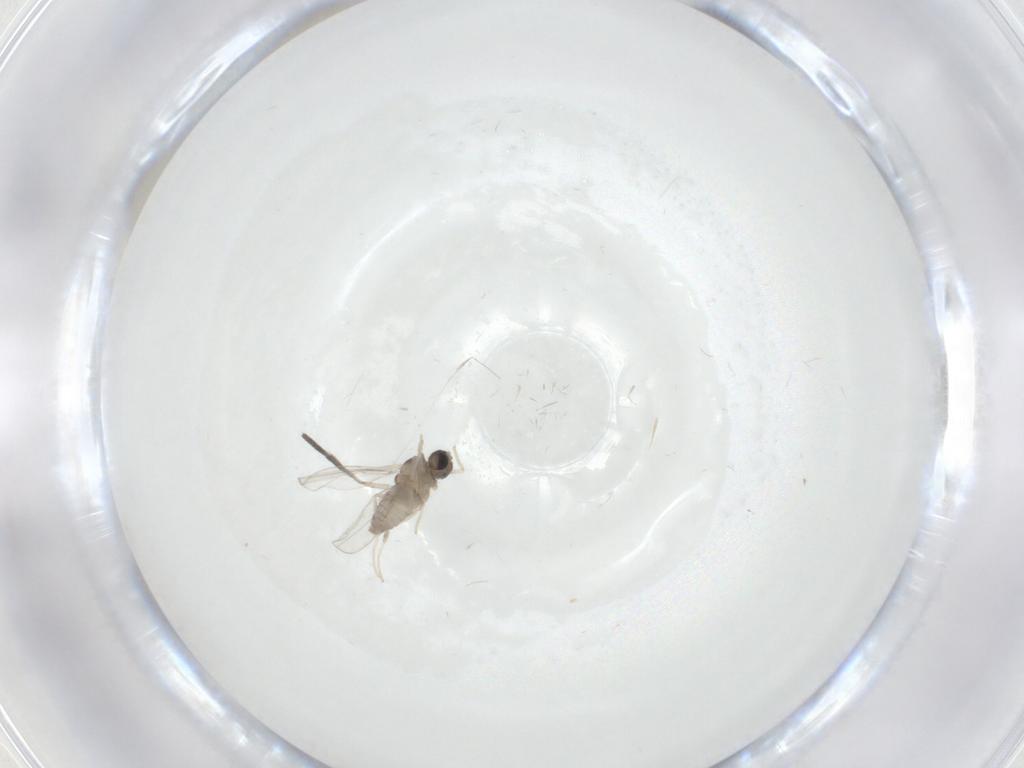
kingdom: Animalia
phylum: Arthropoda
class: Insecta
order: Diptera
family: Cecidomyiidae
